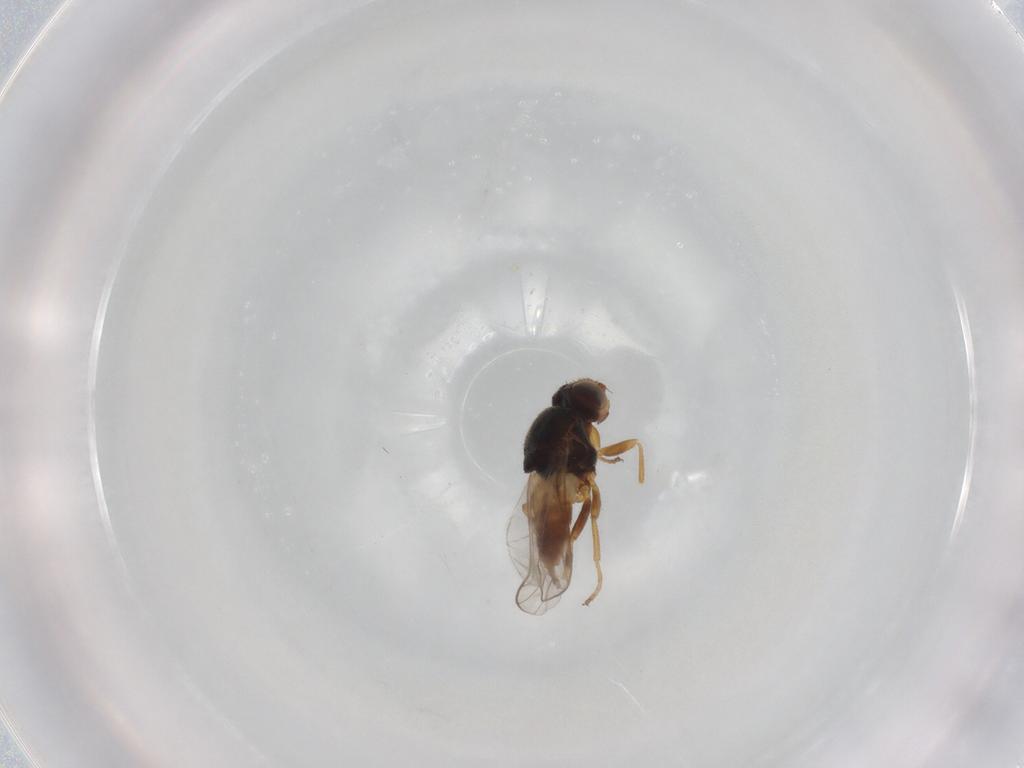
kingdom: Animalia
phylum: Arthropoda
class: Insecta
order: Diptera
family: Chloropidae
